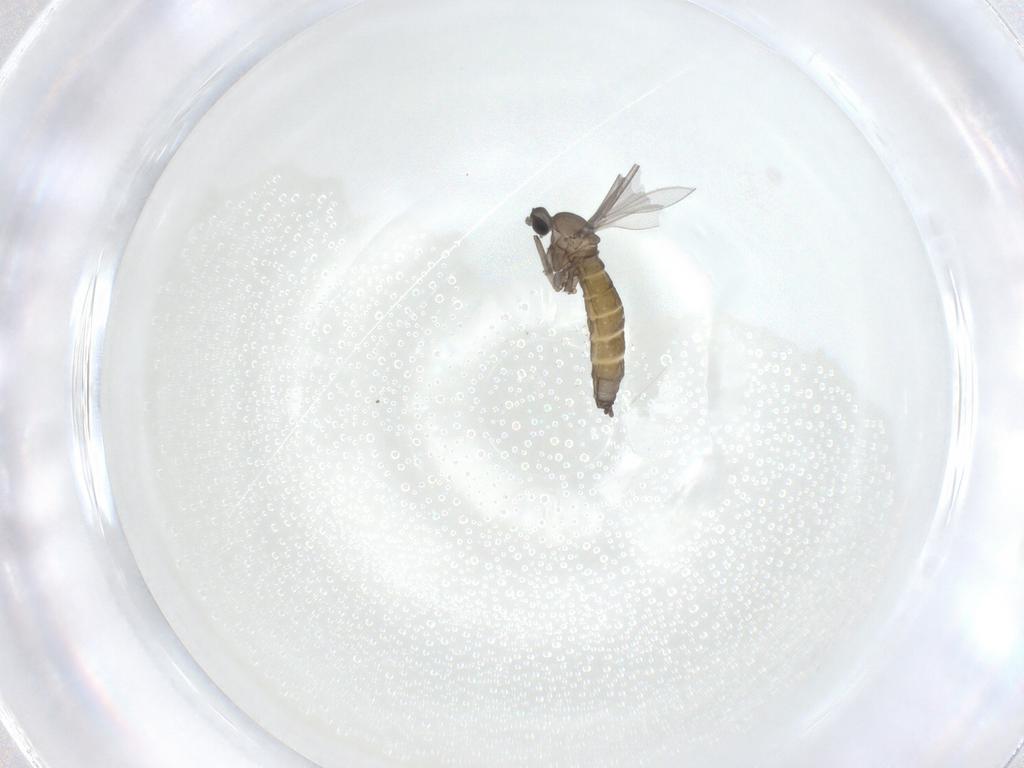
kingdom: Animalia
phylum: Arthropoda
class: Insecta
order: Diptera
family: Cecidomyiidae
